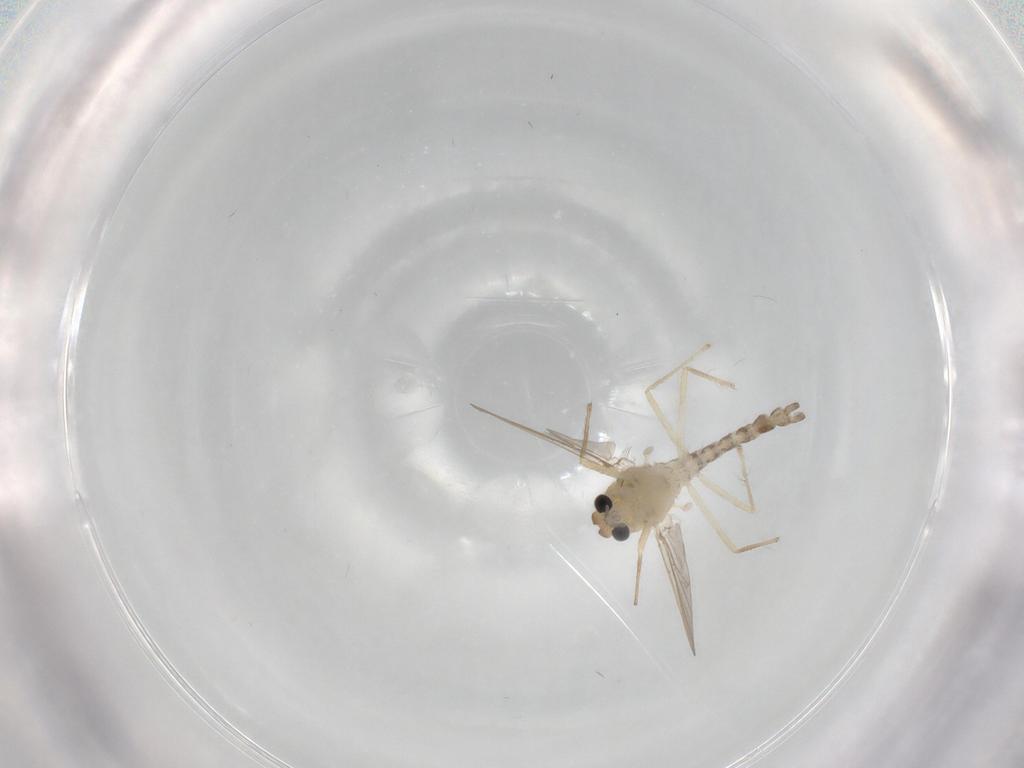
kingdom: Animalia
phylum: Arthropoda
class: Insecta
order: Diptera
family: Chironomidae
